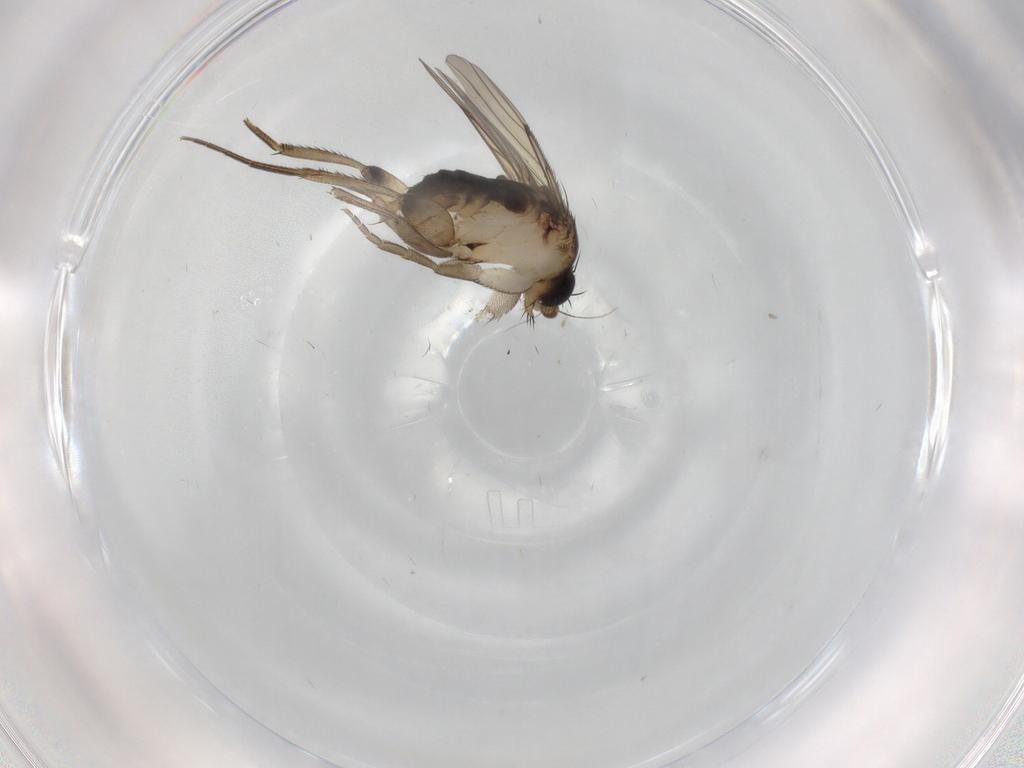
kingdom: Animalia
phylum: Arthropoda
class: Insecta
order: Diptera
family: Phoridae
